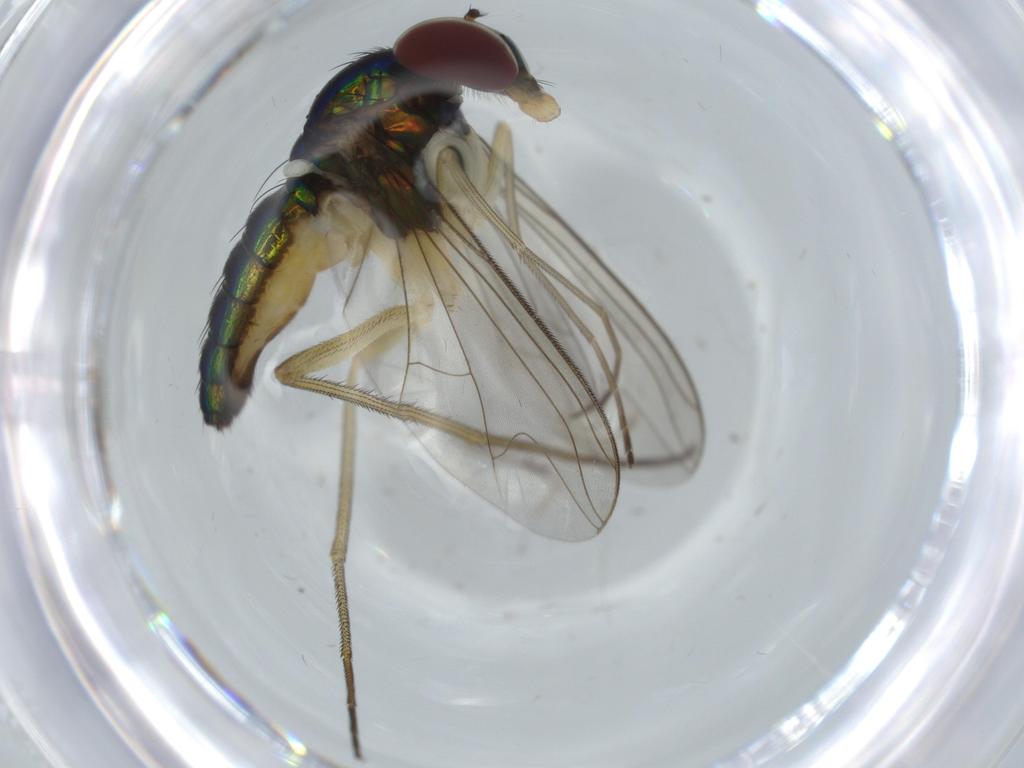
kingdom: Animalia
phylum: Arthropoda
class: Insecta
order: Diptera
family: Dolichopodidae
